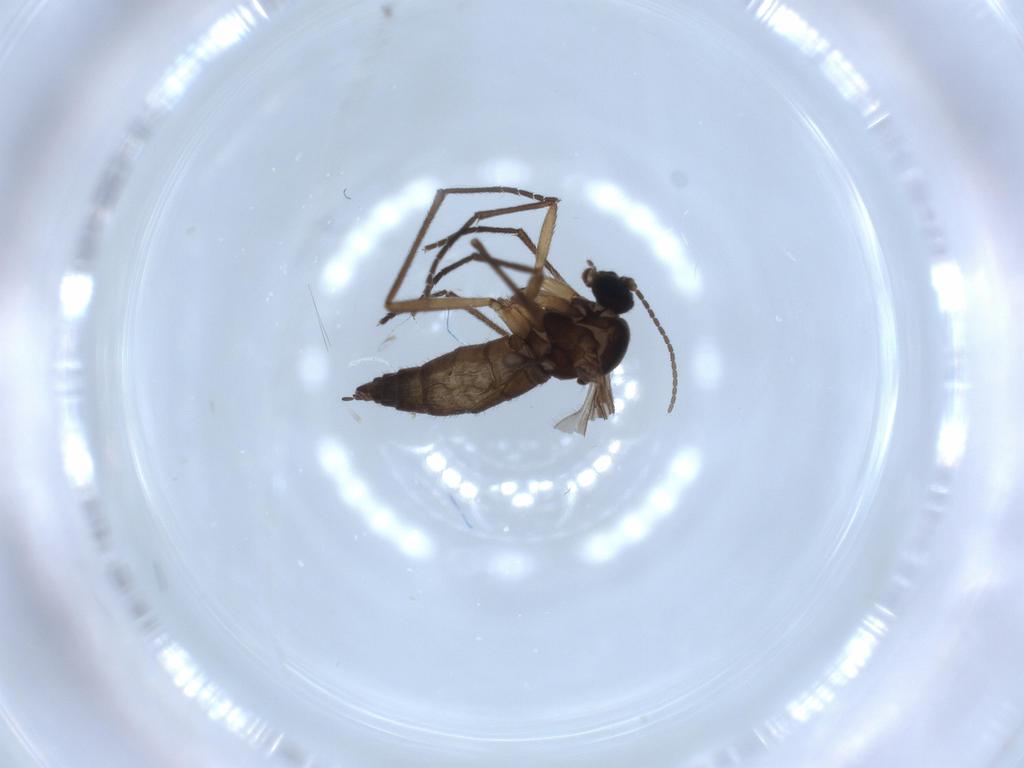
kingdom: Animalia
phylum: Arthropoda
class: Insecta
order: Diptera
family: Sciaridae
